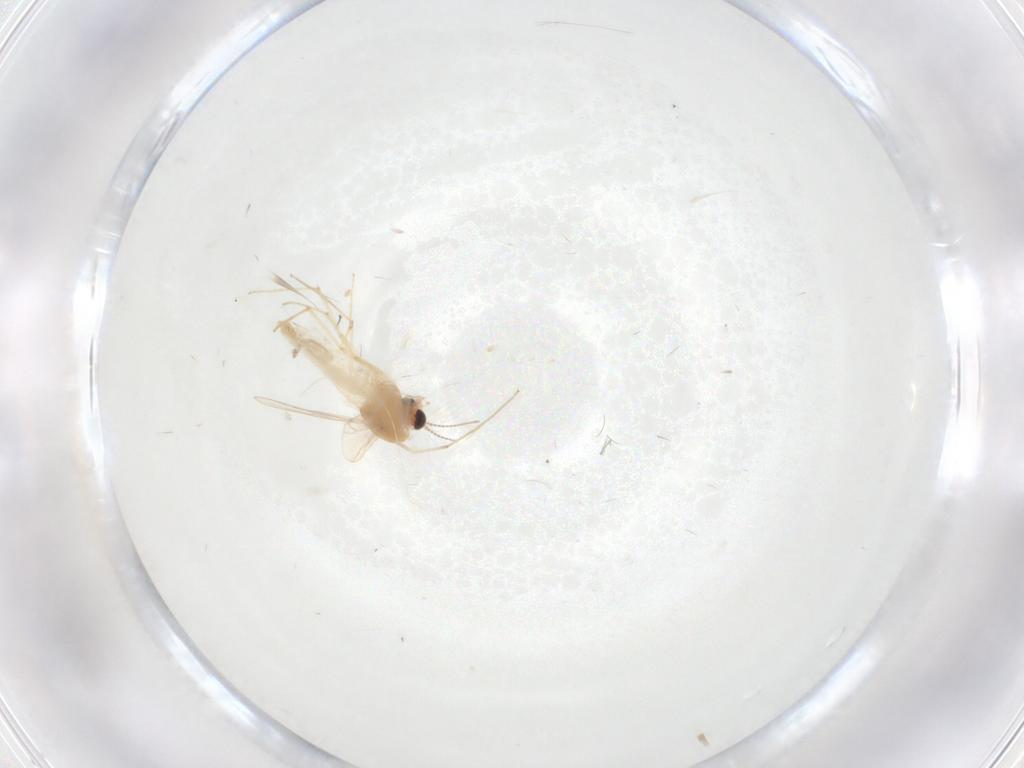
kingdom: Animalia
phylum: Arthropoda
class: Insecta
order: Diptera
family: Chironomidae
